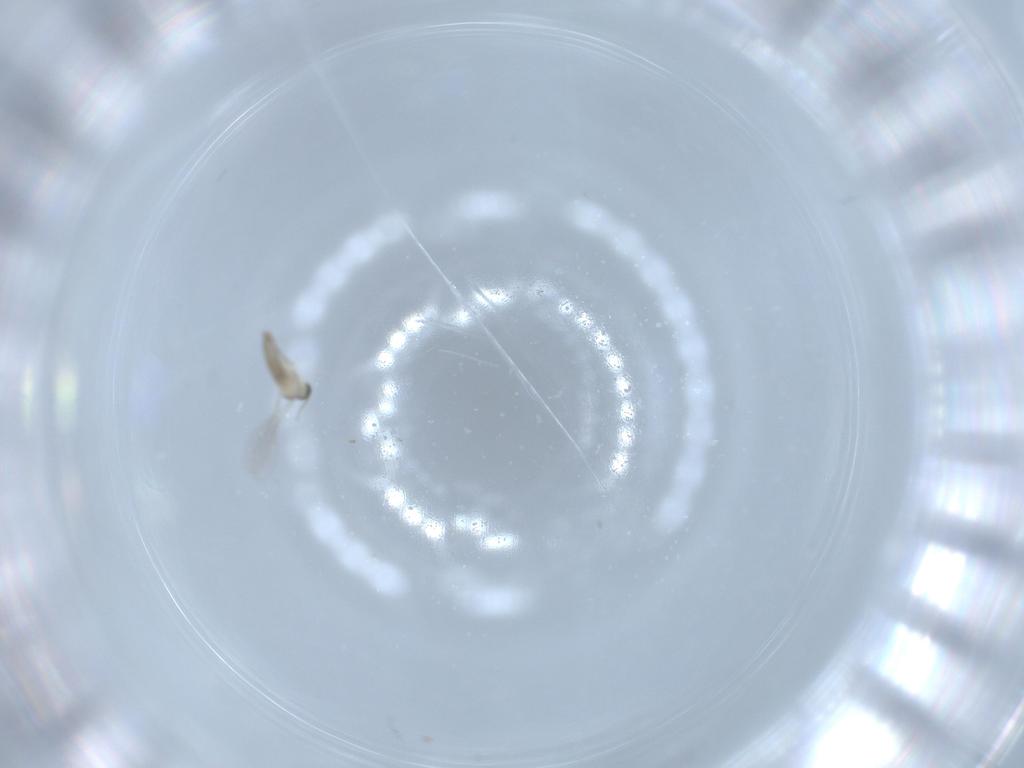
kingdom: Animalia
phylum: Arthropoda
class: Insecta
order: Diptera
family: Cecidomyiidae
